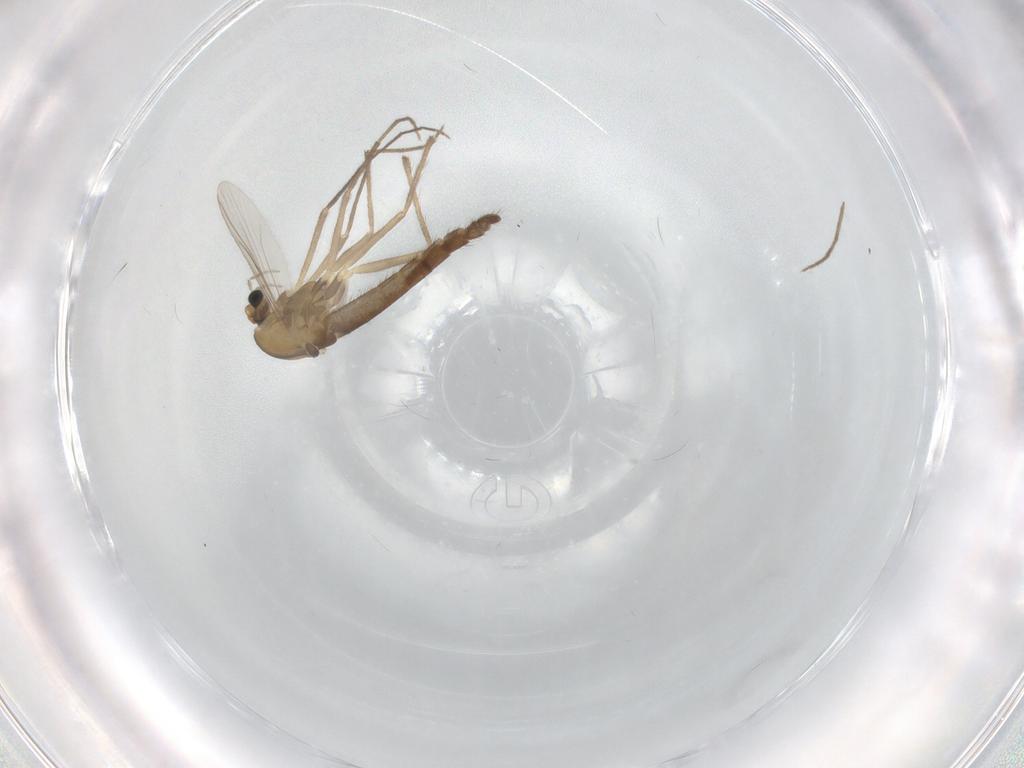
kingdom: Animalia
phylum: Arthropoda
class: Insecta
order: Diptera
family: Chironomidae
